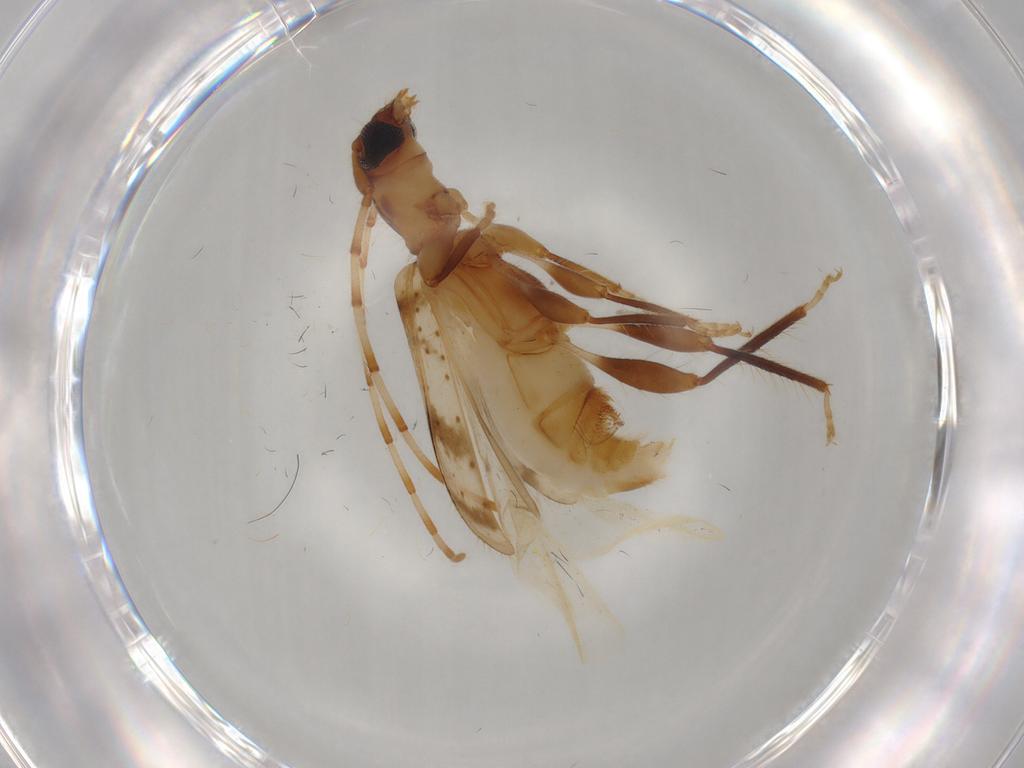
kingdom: Animalia
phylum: Arthropoda
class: Insecta
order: Coleoptera
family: Cerambycidae
